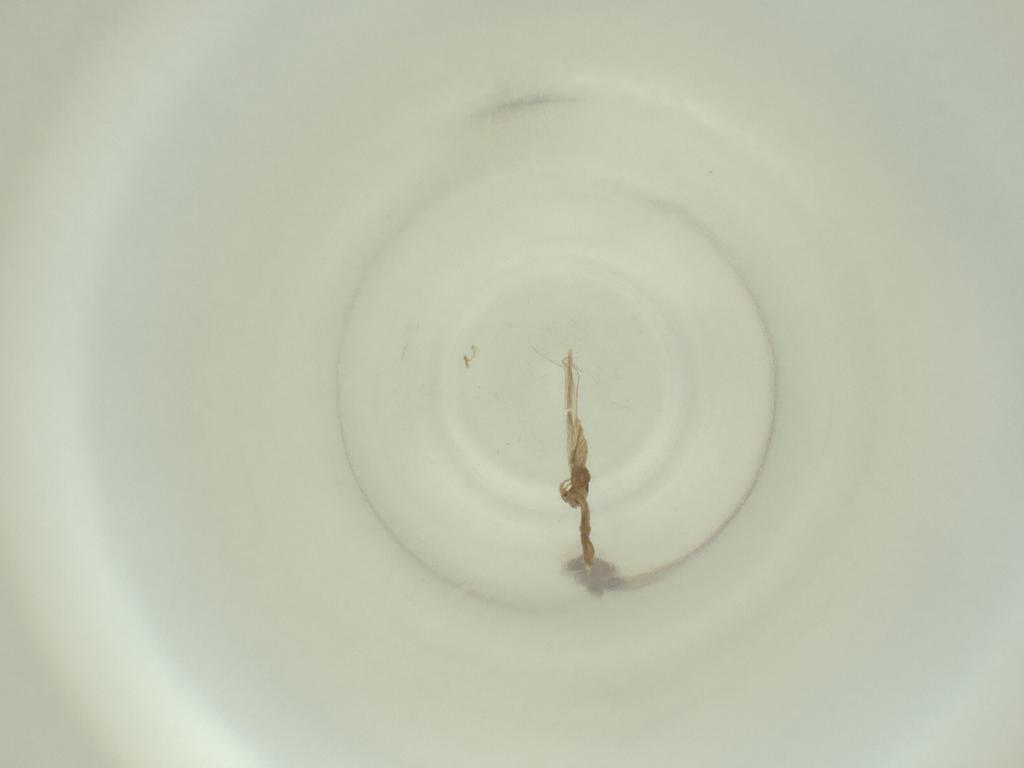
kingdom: Animalia
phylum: Arthropoda
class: Insecta
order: Diptera
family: Cecidomyiidae
